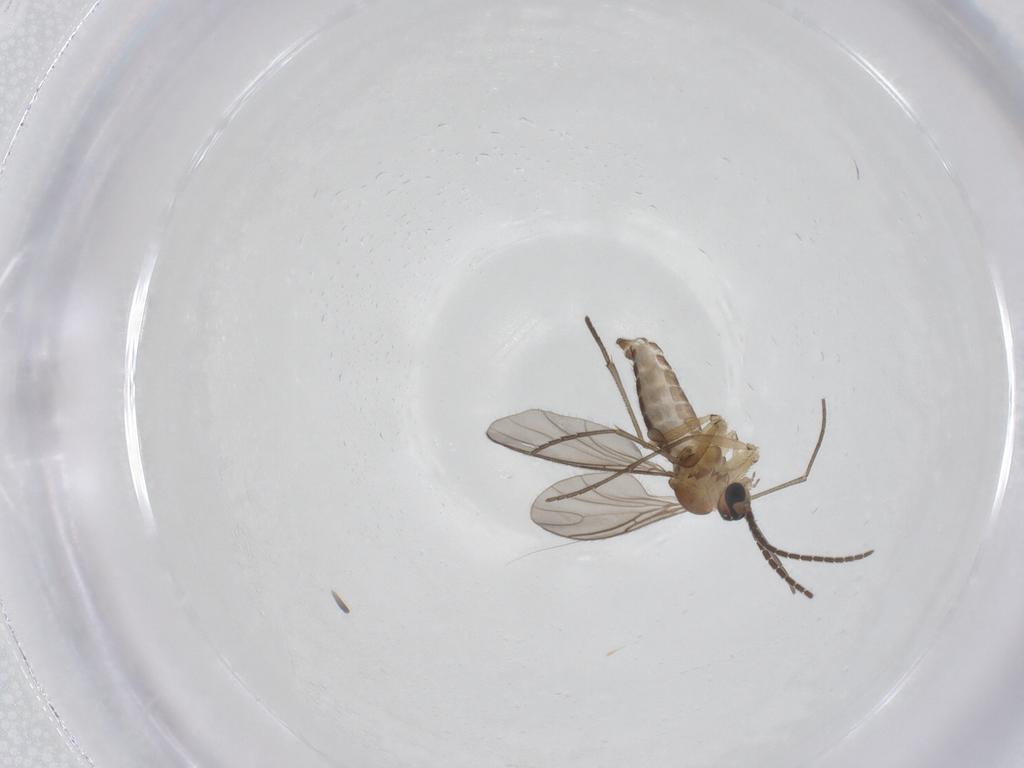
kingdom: Animalia
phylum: Arthropoda
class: Insecta
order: Diptera
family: Sciaridae
